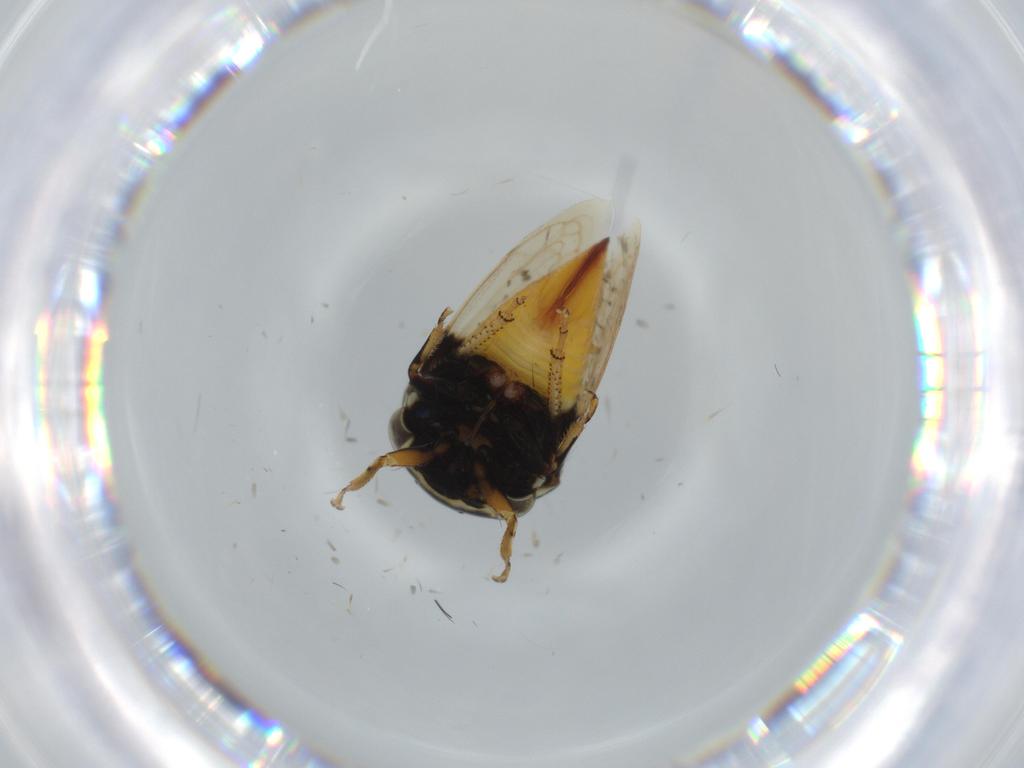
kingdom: Animalia
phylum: Arthropoda
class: Insecta
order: Hemiptera
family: Membracidae
